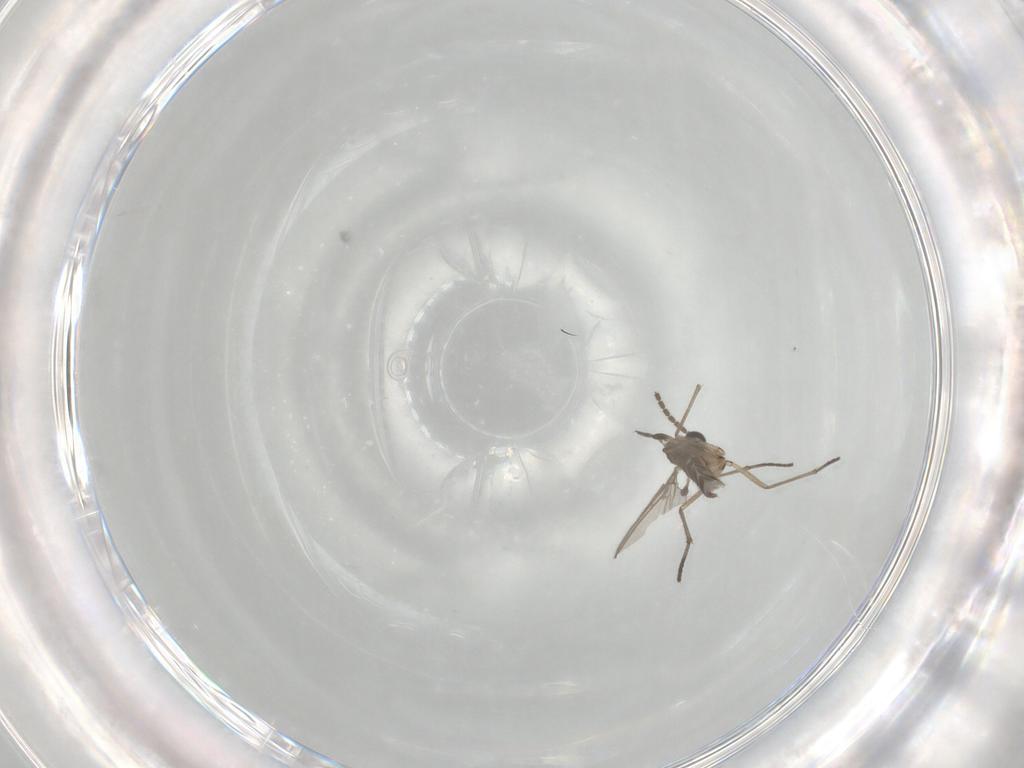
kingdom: Animalia
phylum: Arthropoda
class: Insecta
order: Diptera
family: Sciaridae
